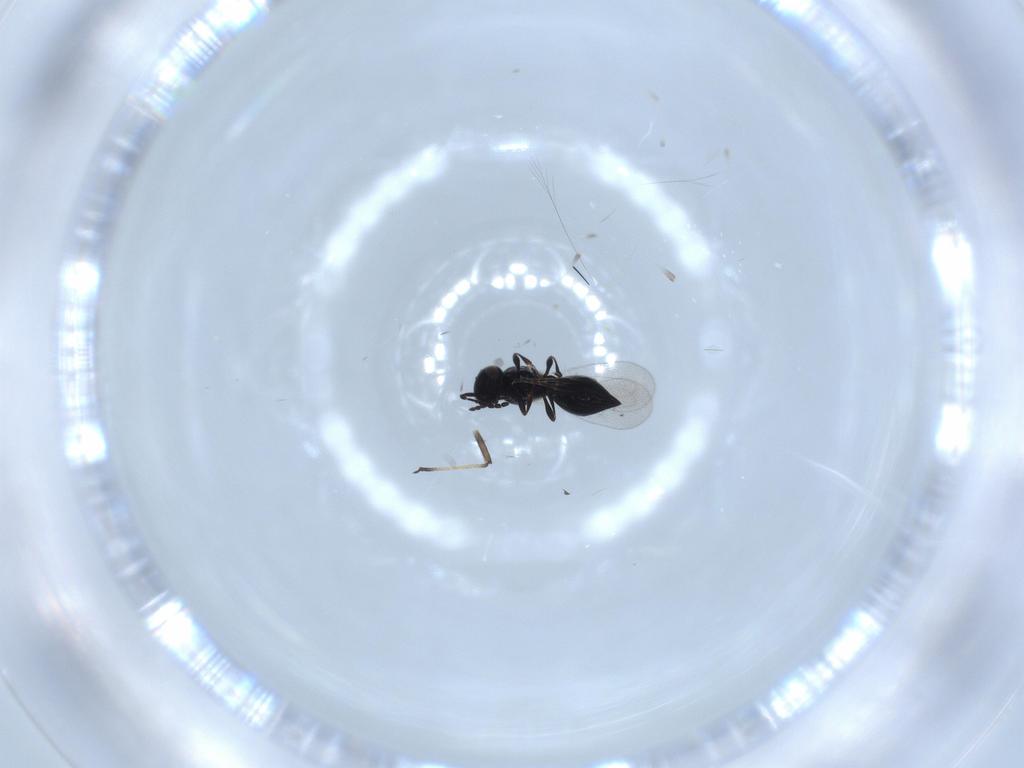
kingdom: Animalia
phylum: Arthropoda
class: Insecta
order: Hymenoptera
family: Platygastridae
